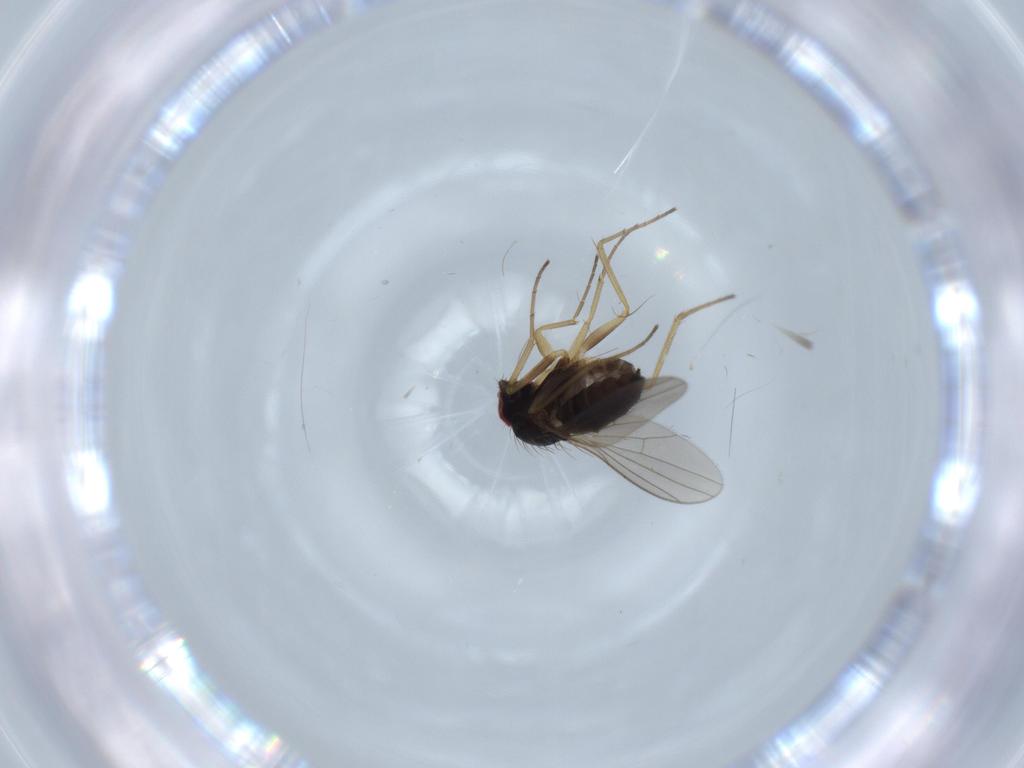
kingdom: Animalia
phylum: Arthropoda
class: Insecta
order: Diptera
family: Dolichopodidae
